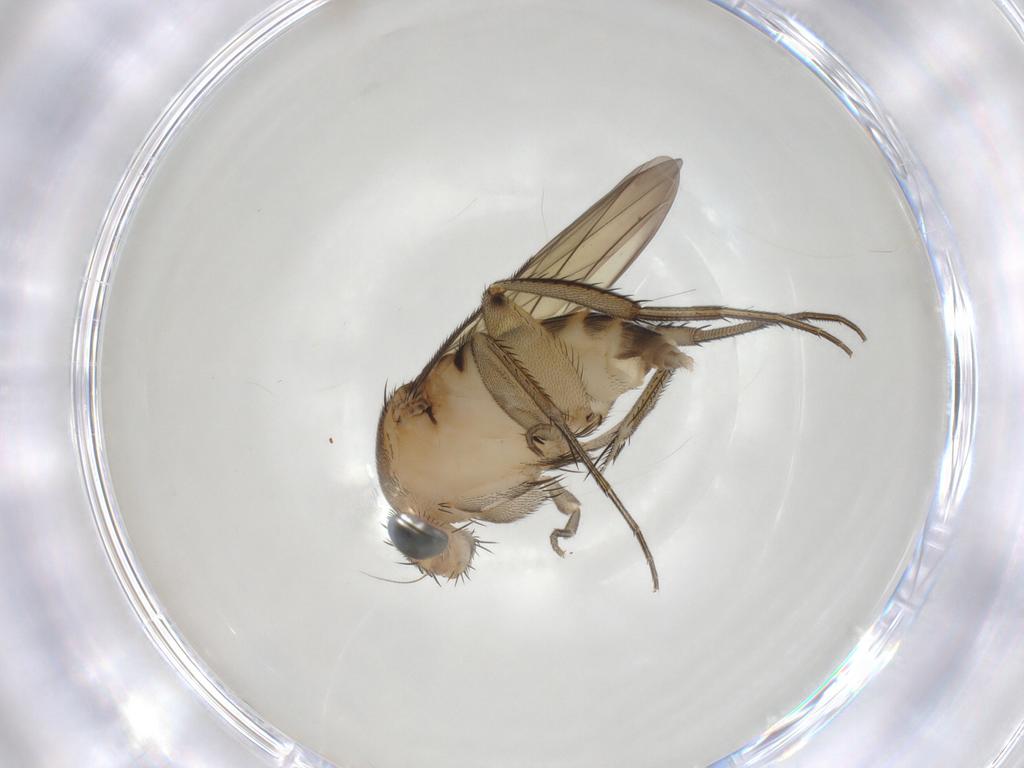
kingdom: Animalia
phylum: Arthropoda
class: Insecta
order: Diptera
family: Phoridae
